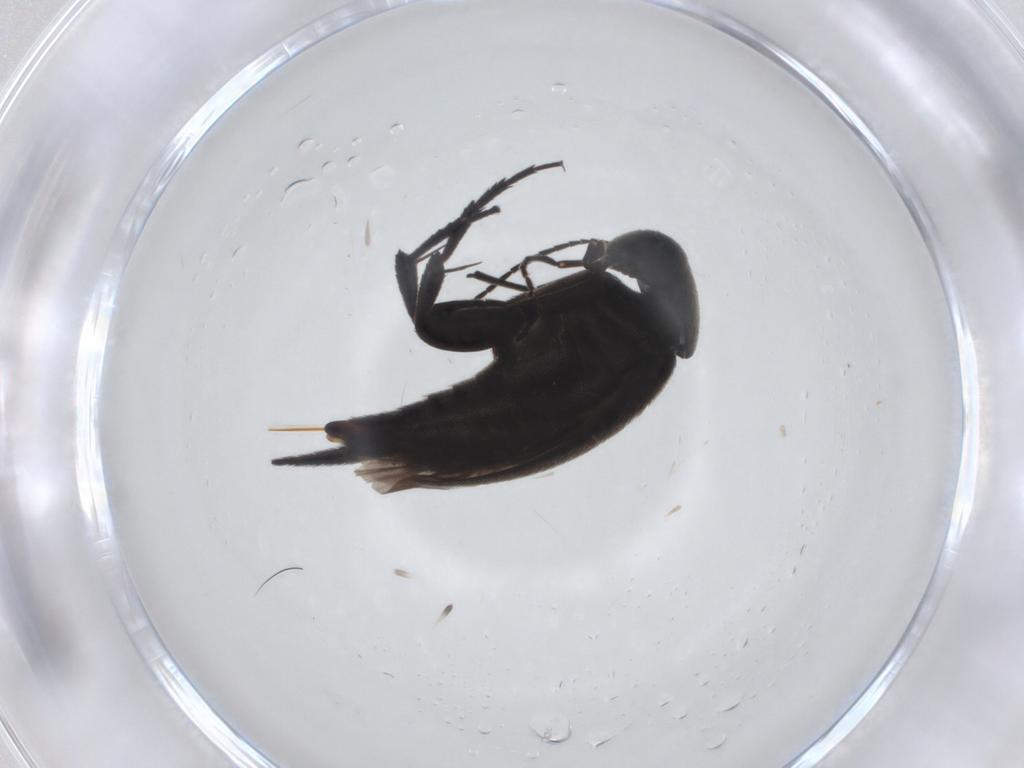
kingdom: Animalia
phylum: Arthropoda
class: Insecta
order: Coleoptera
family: Mordellidae
